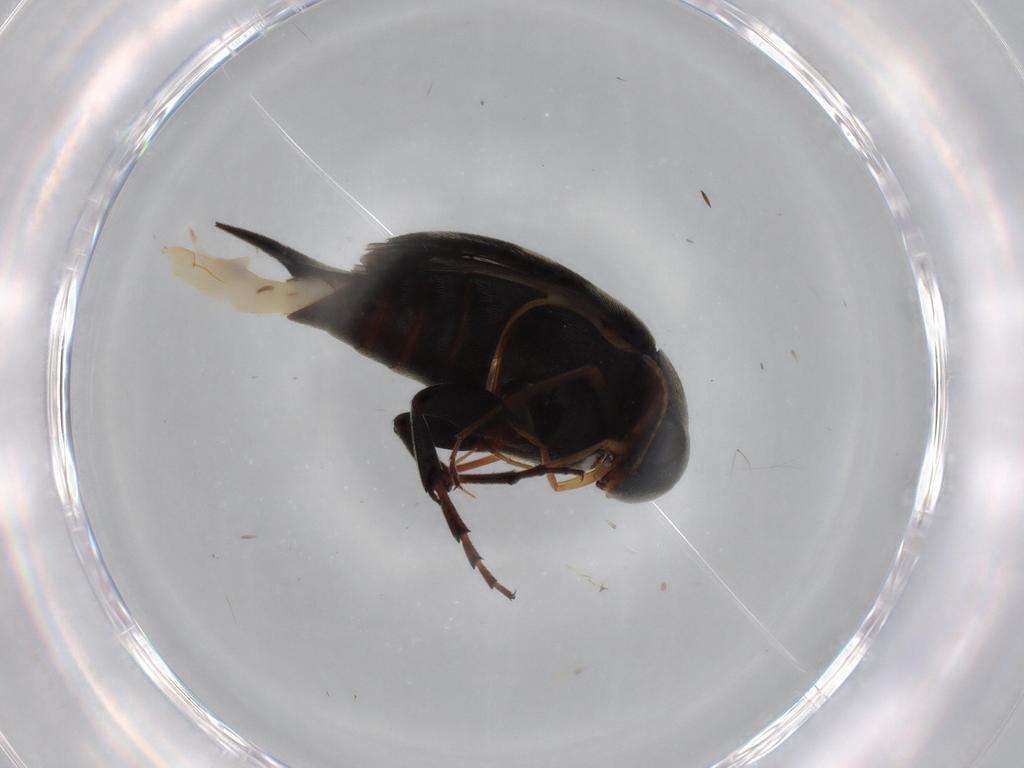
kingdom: Animalia
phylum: Arthropoda
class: Insecta
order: Coleoptera
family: Mordellidae
